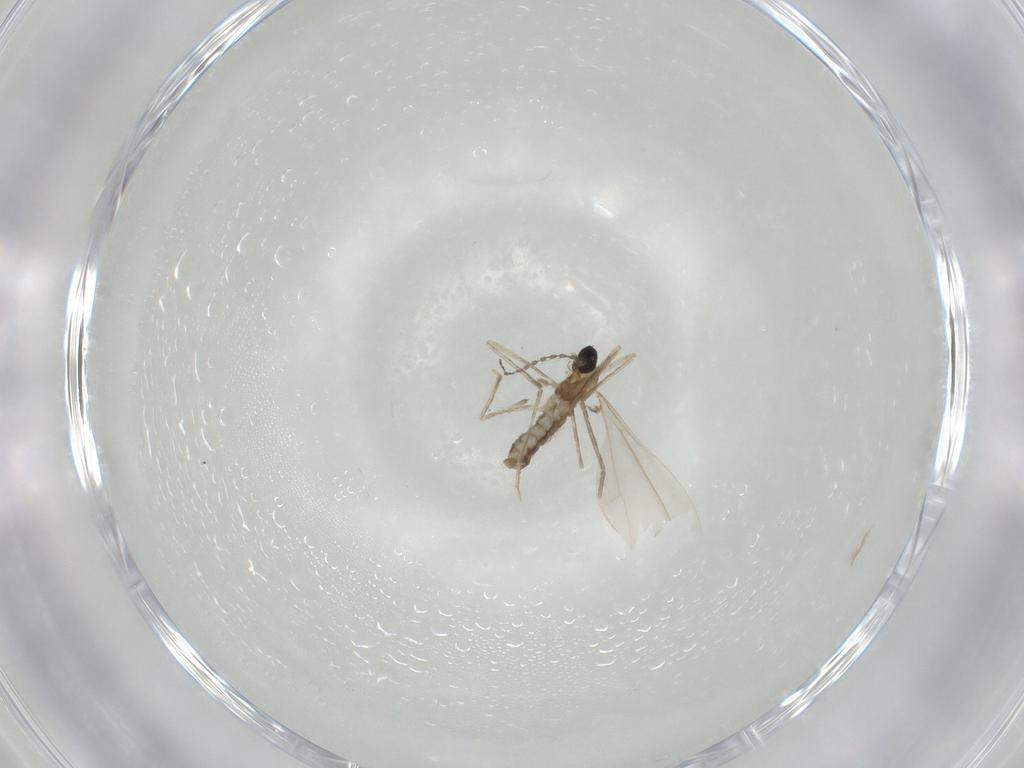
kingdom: Animalia
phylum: Arthropoda
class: Insecta
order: Diptera
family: Cecidomyiidae
